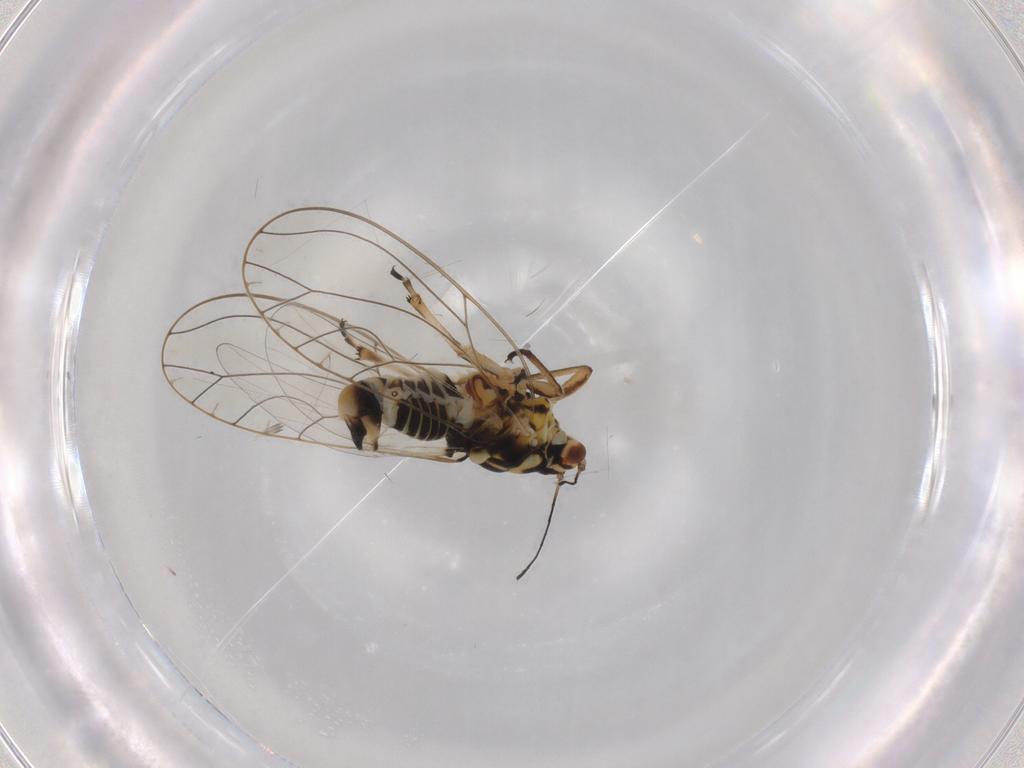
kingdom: Animalia
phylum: Arthropoda
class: Insecta
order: Hemiptera
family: Triozidae
